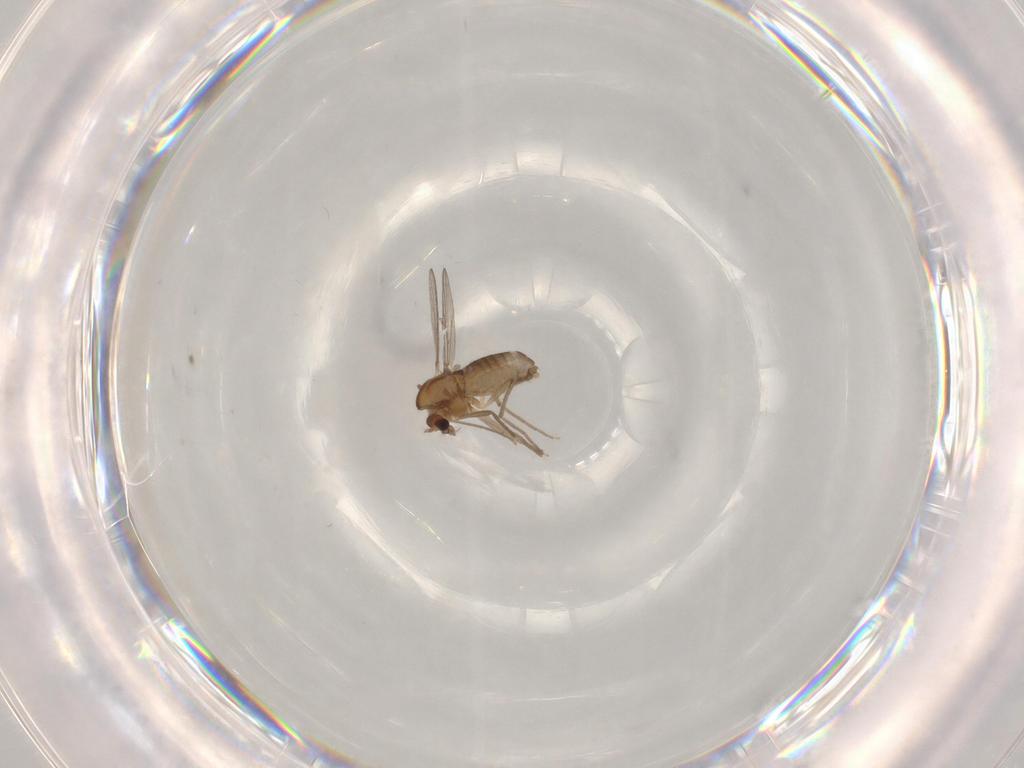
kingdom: Animalia
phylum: Arthropoda
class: Insecta
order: Diptera
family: Chironomidae
